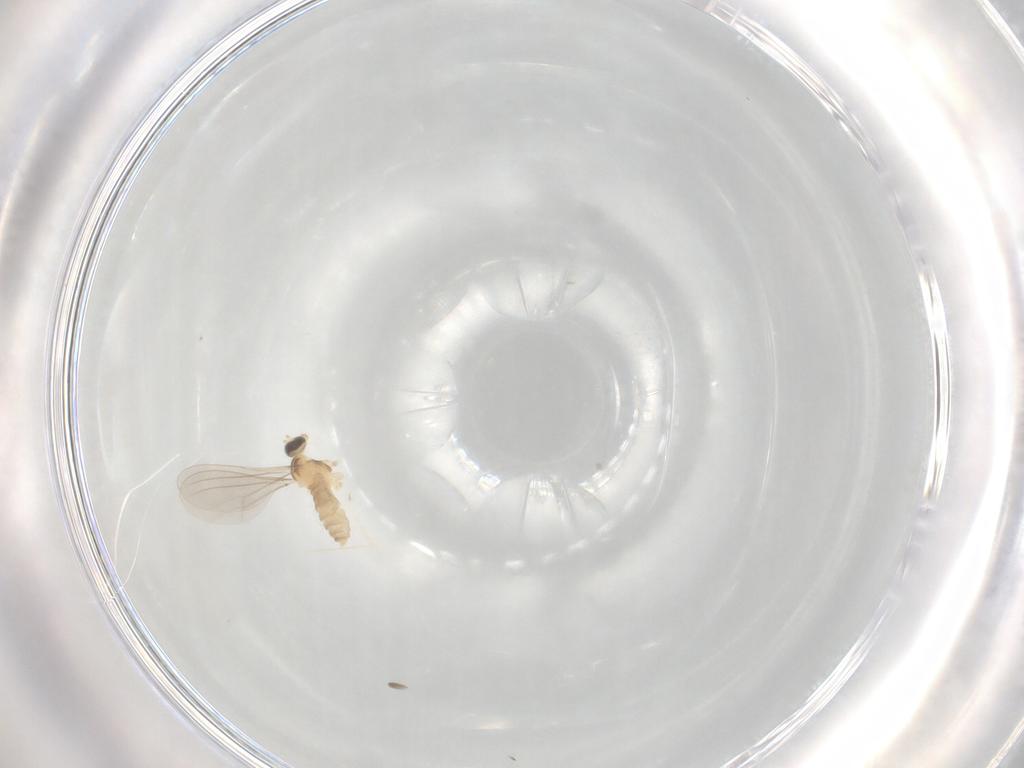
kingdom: Animalia
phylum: Arthropoda
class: Insecta
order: Diptera
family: Cecidomyiidae
